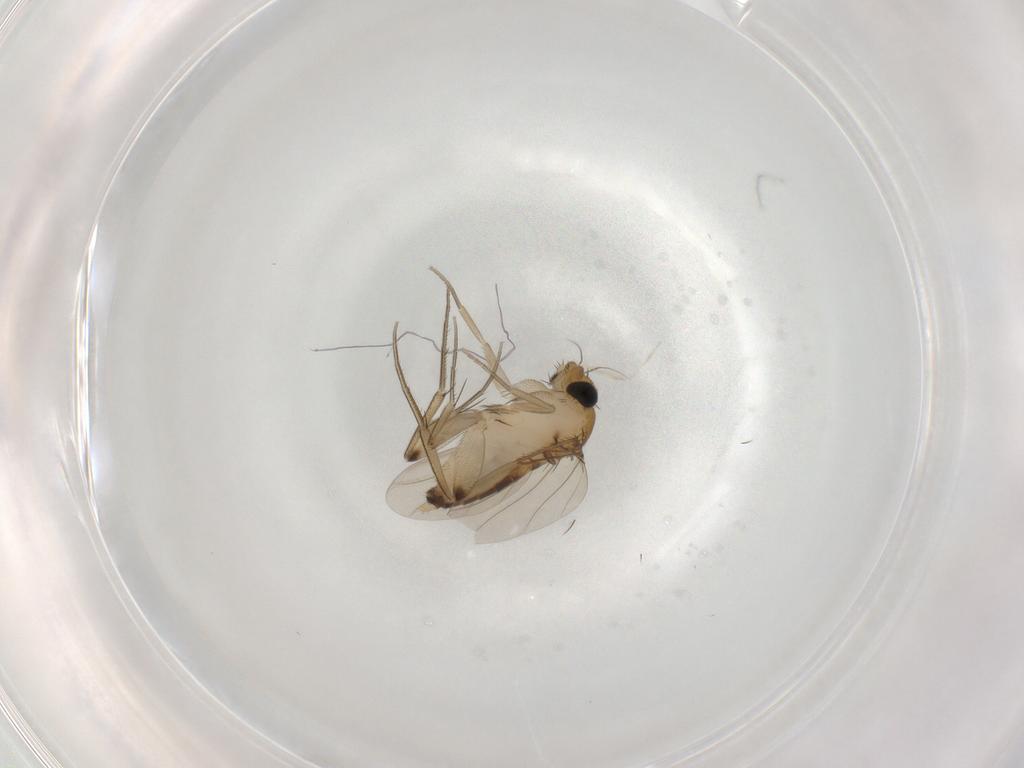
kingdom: Animalia
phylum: Arthropoda
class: Insecta
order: Diptera
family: Phoridae
